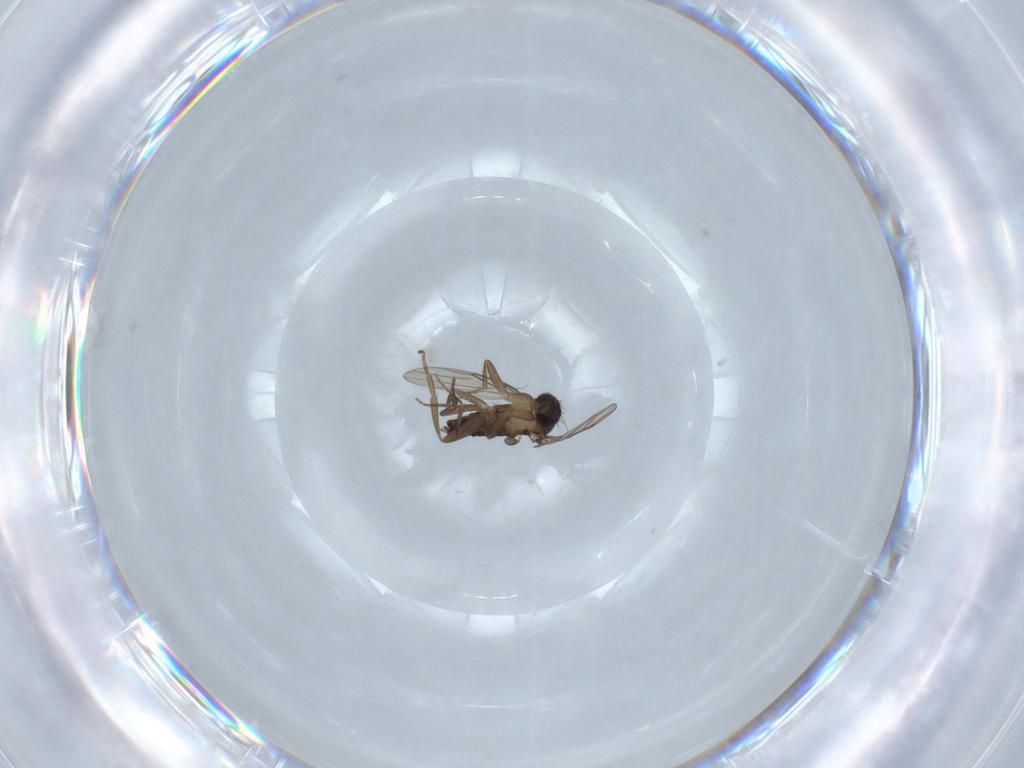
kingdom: Animalia
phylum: Arthropoda
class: Insecta
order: Diptera
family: Phoridae
